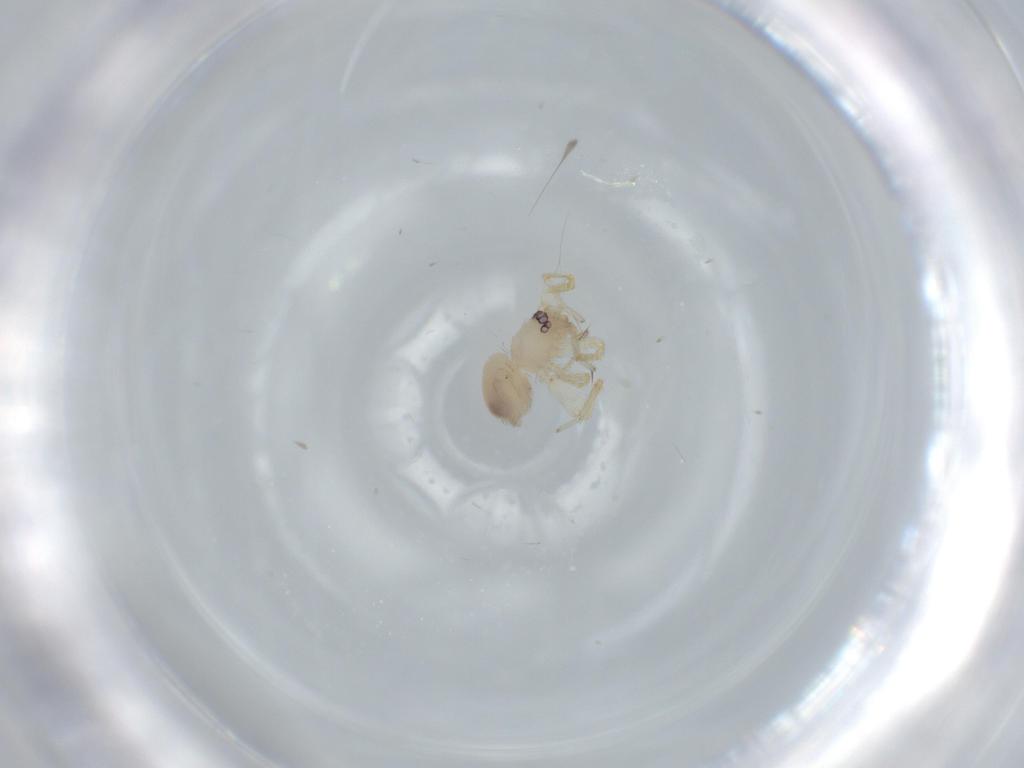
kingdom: Animalia
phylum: Arthropoda
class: Arachnida
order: Araneae
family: Oonopidae
